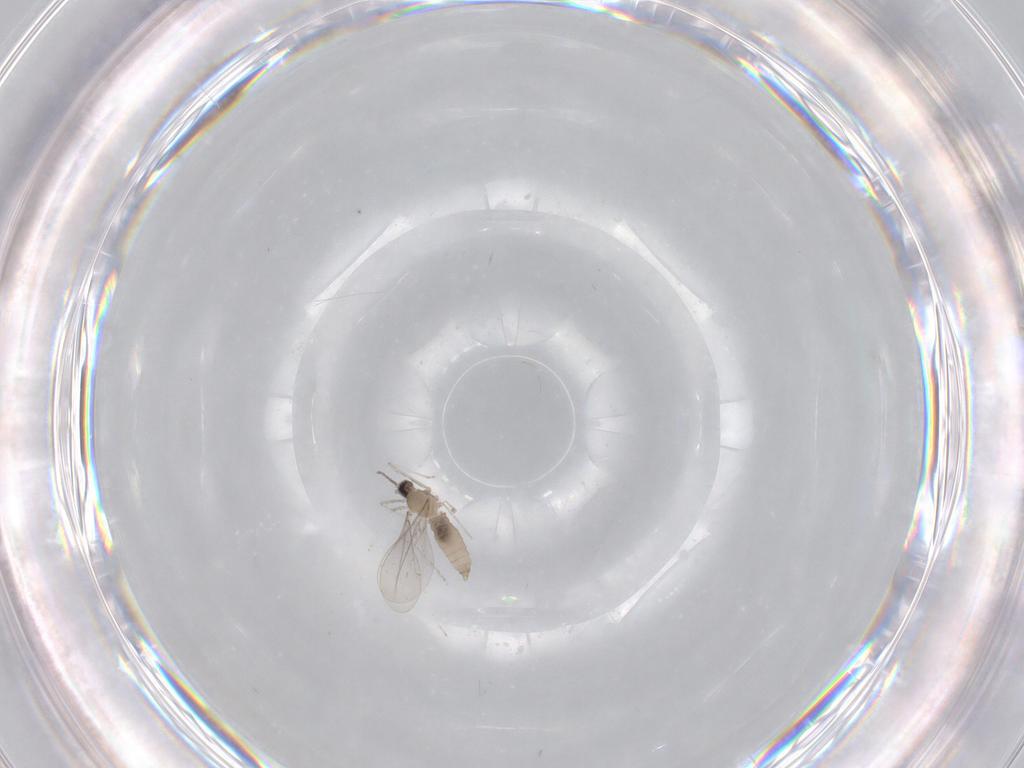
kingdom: Animalia
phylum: Arthropoda
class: Insecta
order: Diptera
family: Cecidomyiidae
